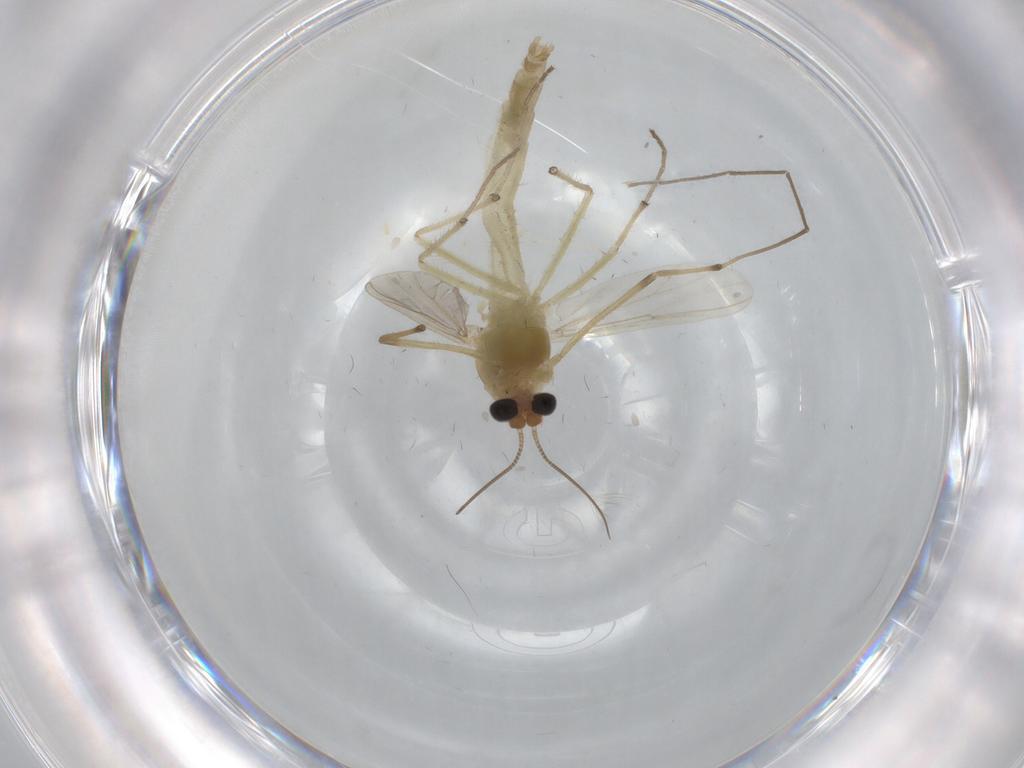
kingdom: Animalia
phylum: Arthropoda
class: Insecta
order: Diptera
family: Chironomidae
